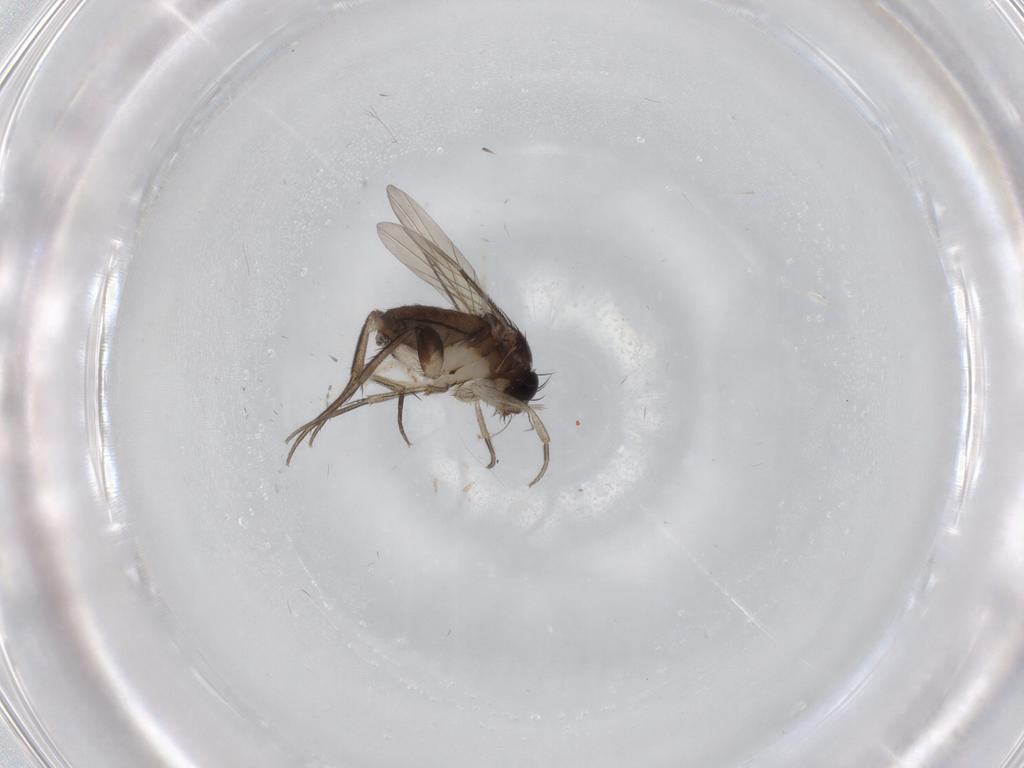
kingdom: Animalia
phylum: Arthropoda
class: Insecta
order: Diptera
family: Phoridae
